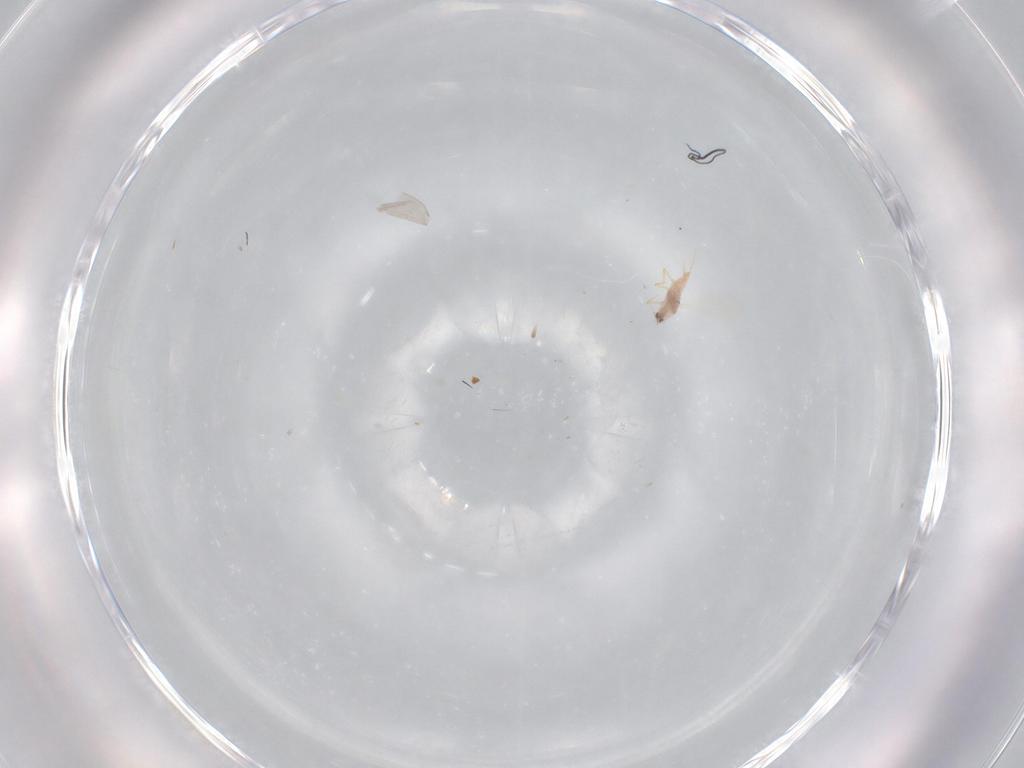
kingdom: Animalia
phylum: Arthropoda
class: Insecta
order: Hemiptera
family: Diaspididae
